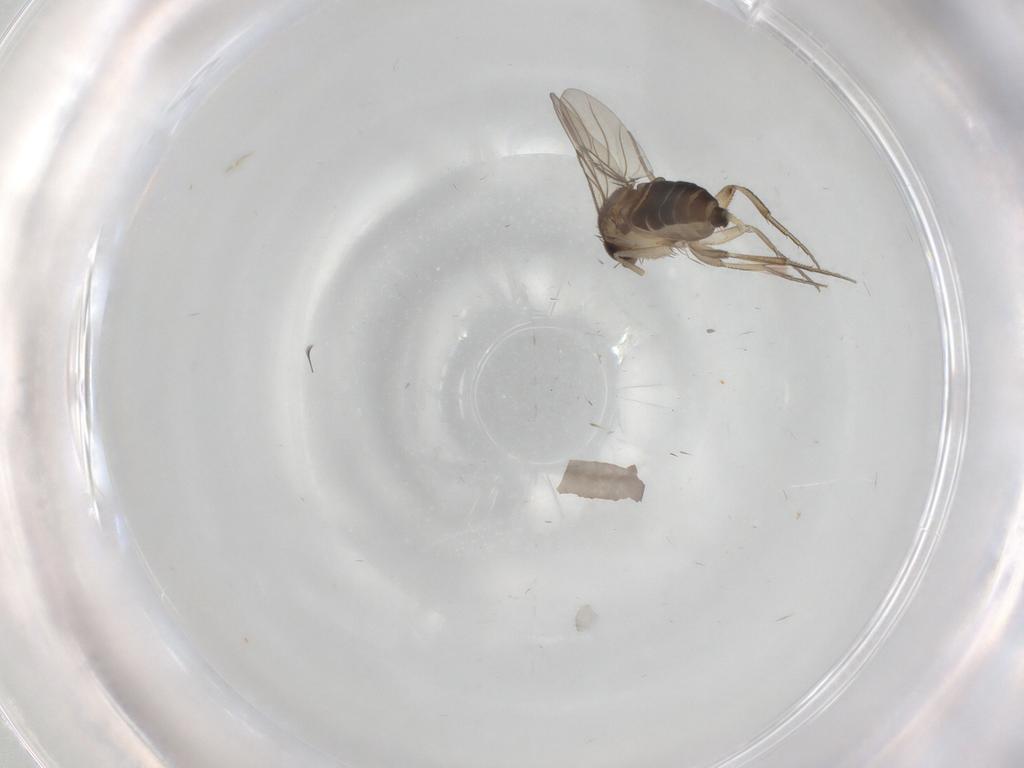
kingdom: Animalia
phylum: Arthropoda
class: Insecta
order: Diptera
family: Phoridae
